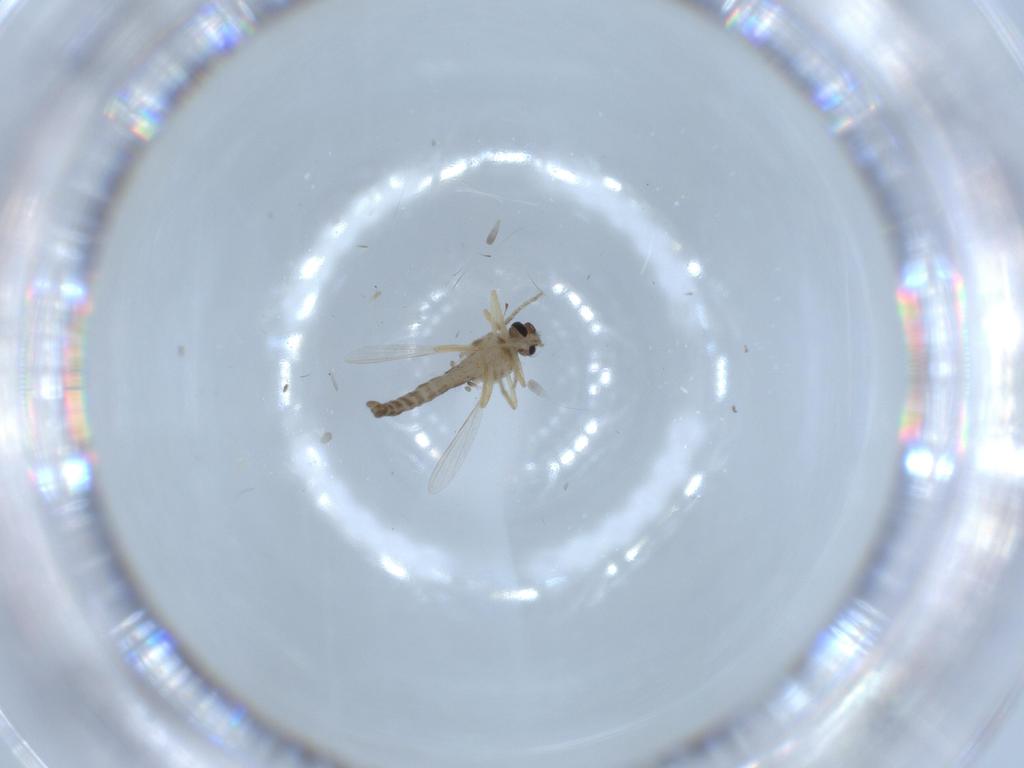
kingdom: Animalia
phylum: Arthropoda
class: Insecta
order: Diptera
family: Ceratopogonidae
